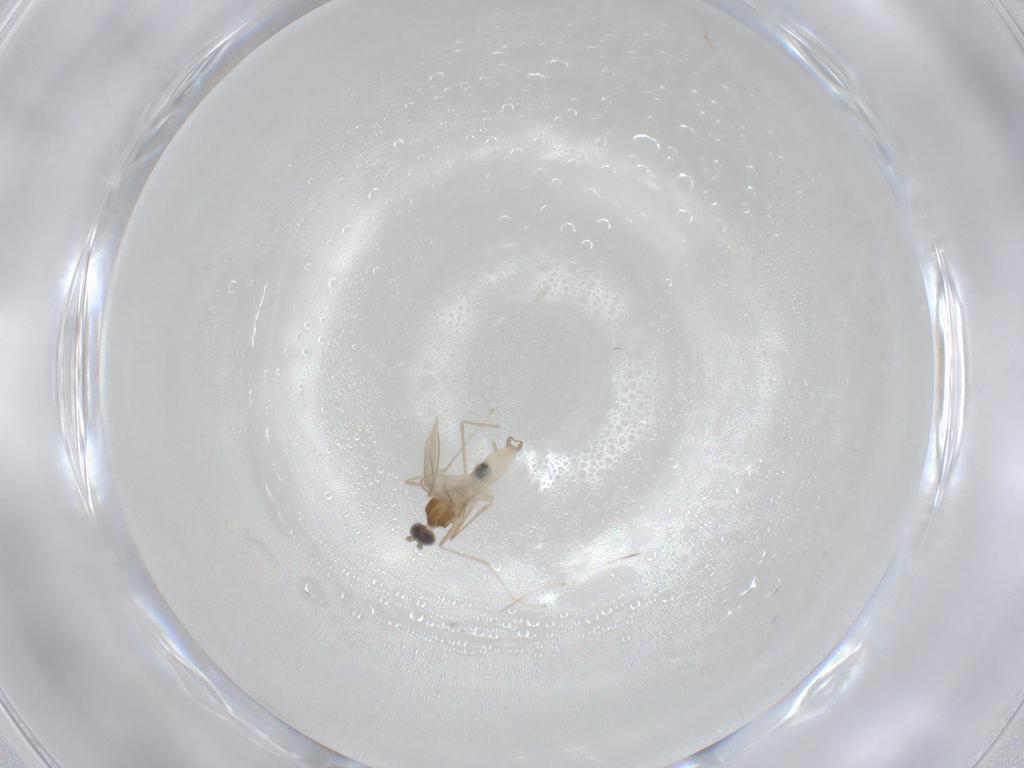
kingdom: Animalia
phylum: Arthropoda
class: Insecta
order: Diptera
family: Cecidomyiidae
